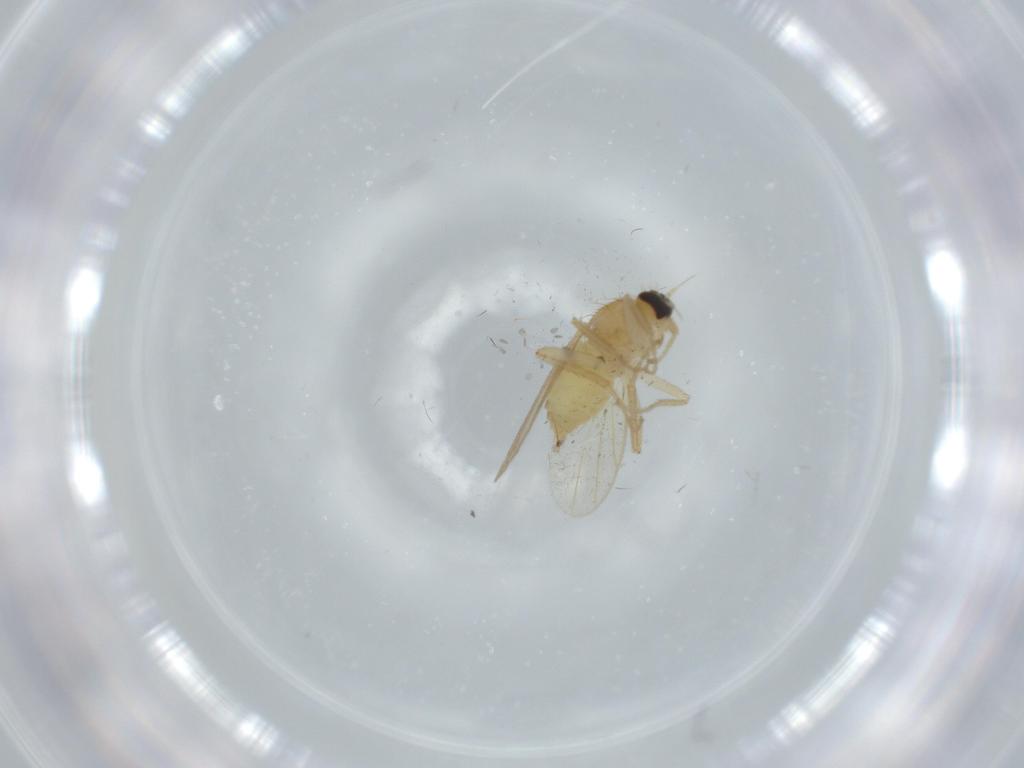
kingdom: Animalia
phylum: Arthropoda
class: Insecta
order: Diptera
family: Hybotidae
